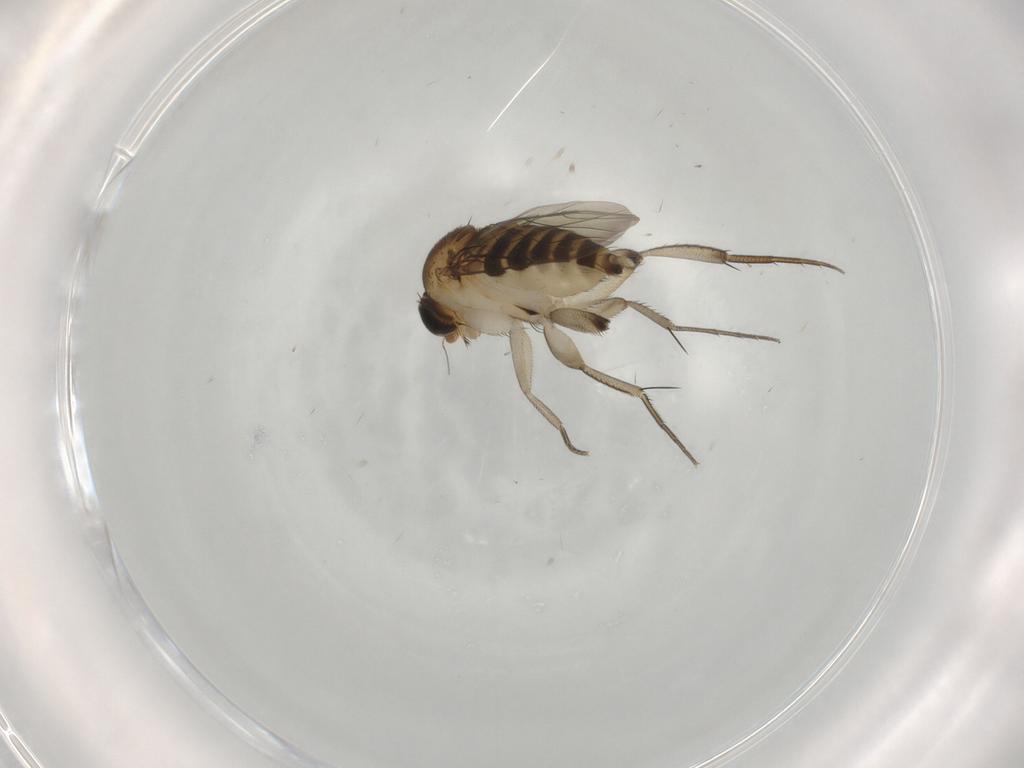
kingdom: Animalia
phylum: Arthropoda
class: Insecta
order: Diptera
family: Phoridae
